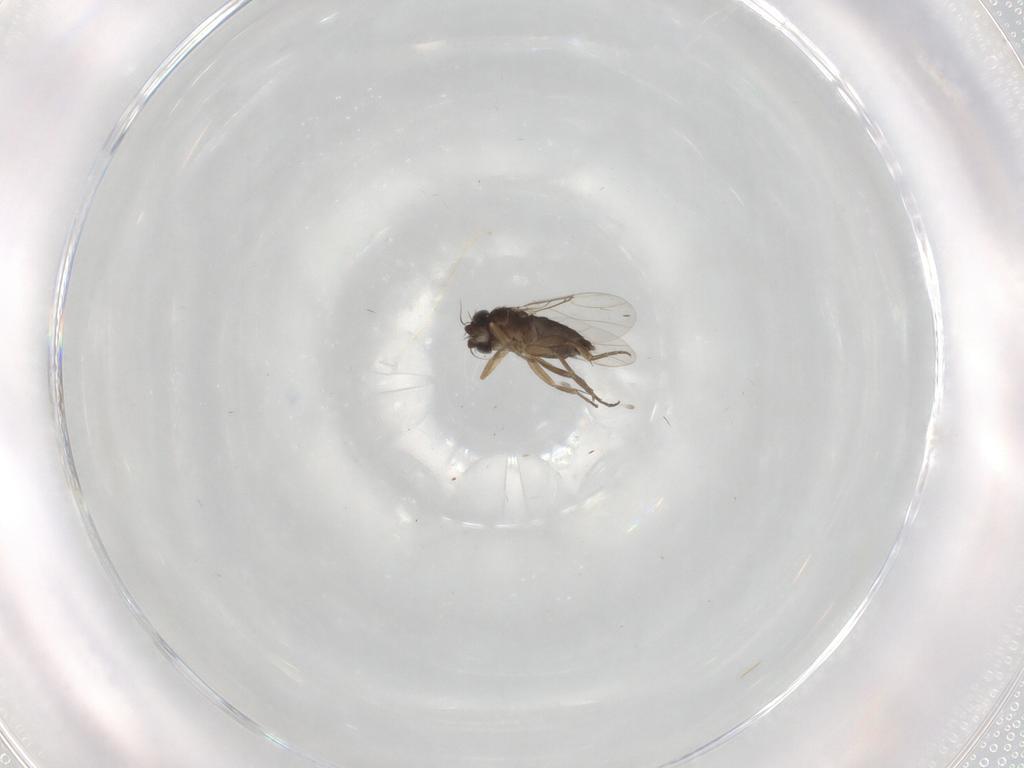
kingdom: Animalia
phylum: Arthropoda
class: Insecta
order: Diptera
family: Phoridae
